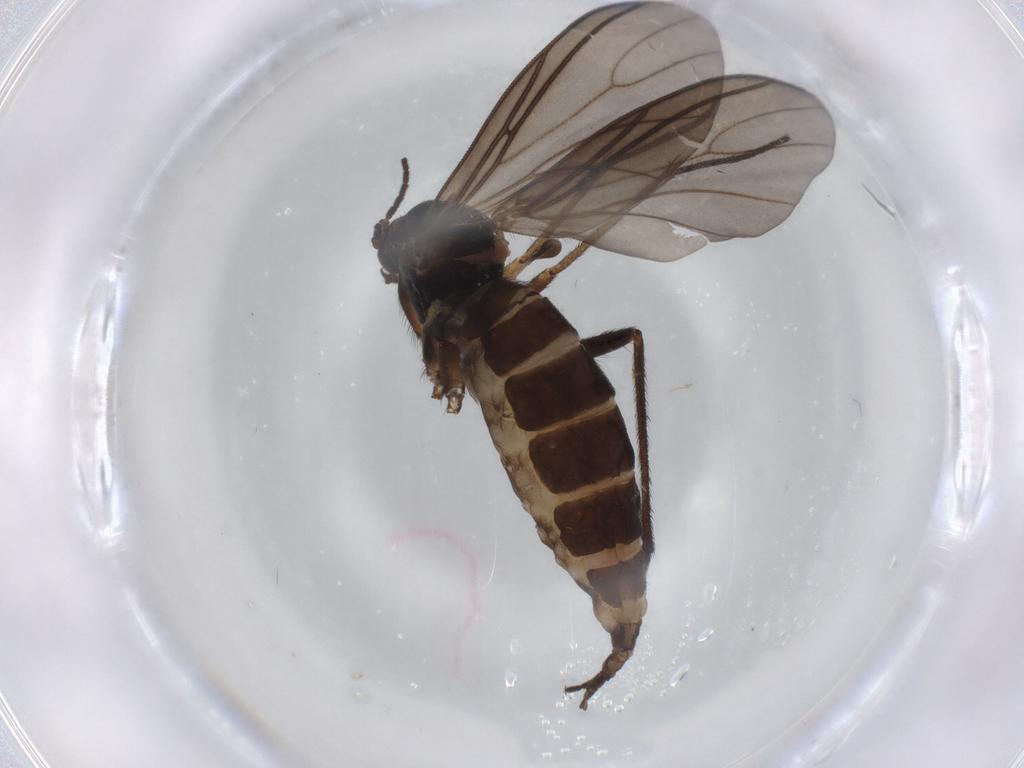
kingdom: Animalia
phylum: Arthropoda
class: Insecta
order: Diptera
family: Sciaridae
